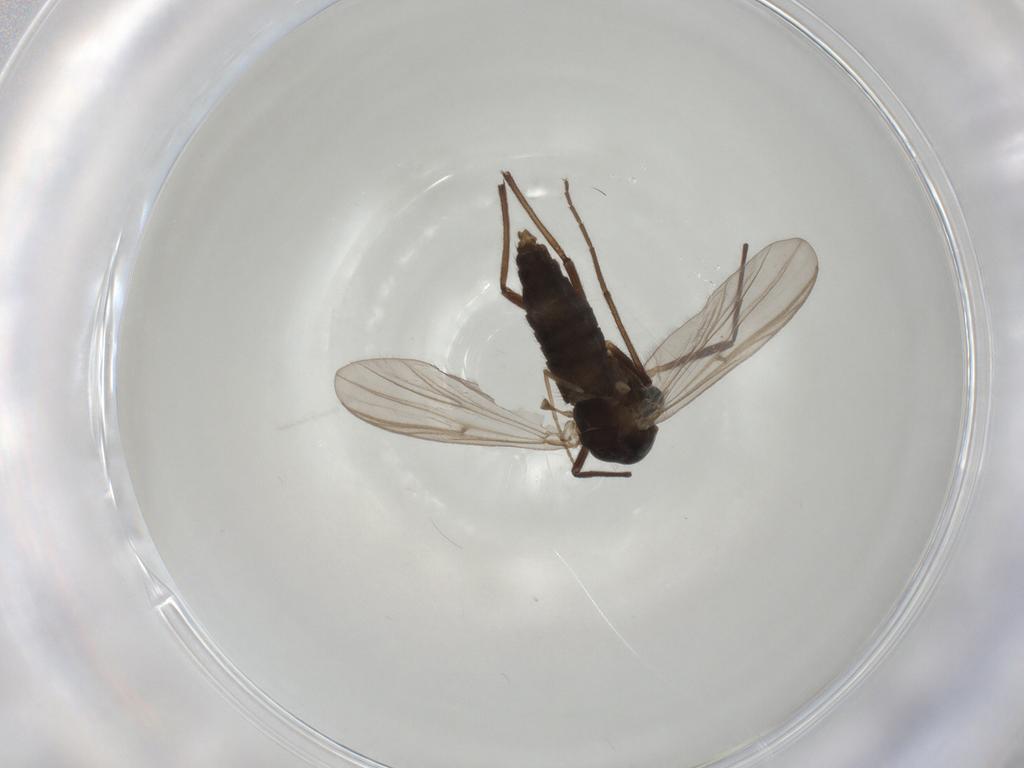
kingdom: Animalia
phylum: Arthropoda
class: Insecta
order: Diptera
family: Chironomidae
